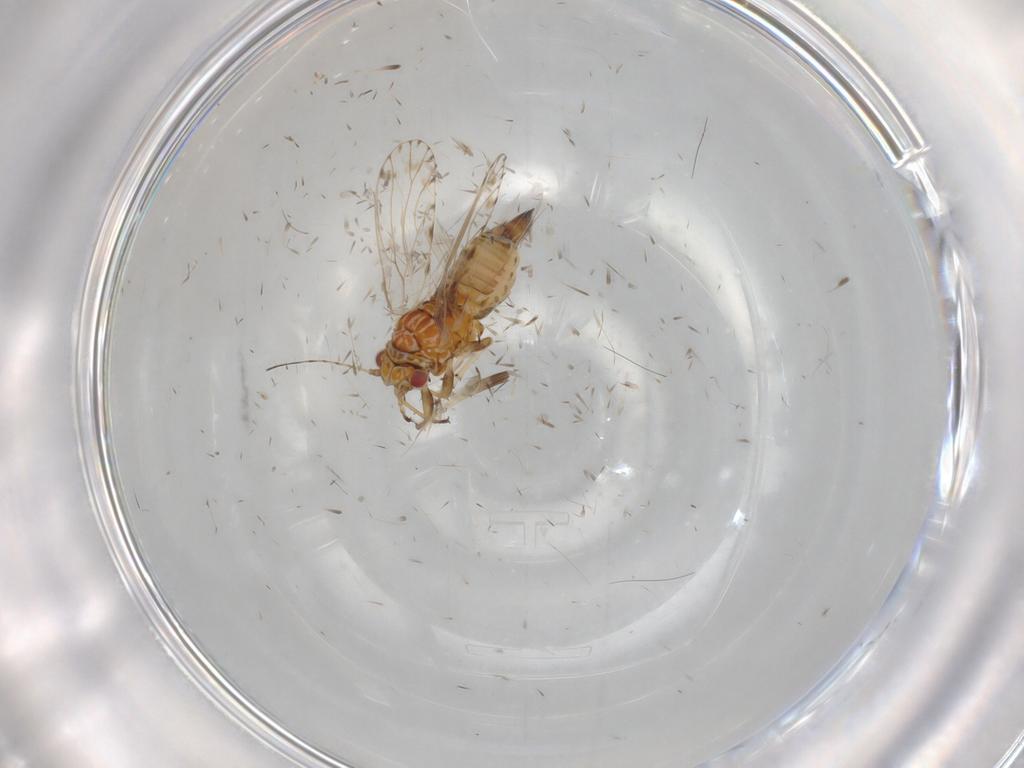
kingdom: Animalia
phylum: Arthropoda
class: Insecta
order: Hemiptera
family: Psyllidae
